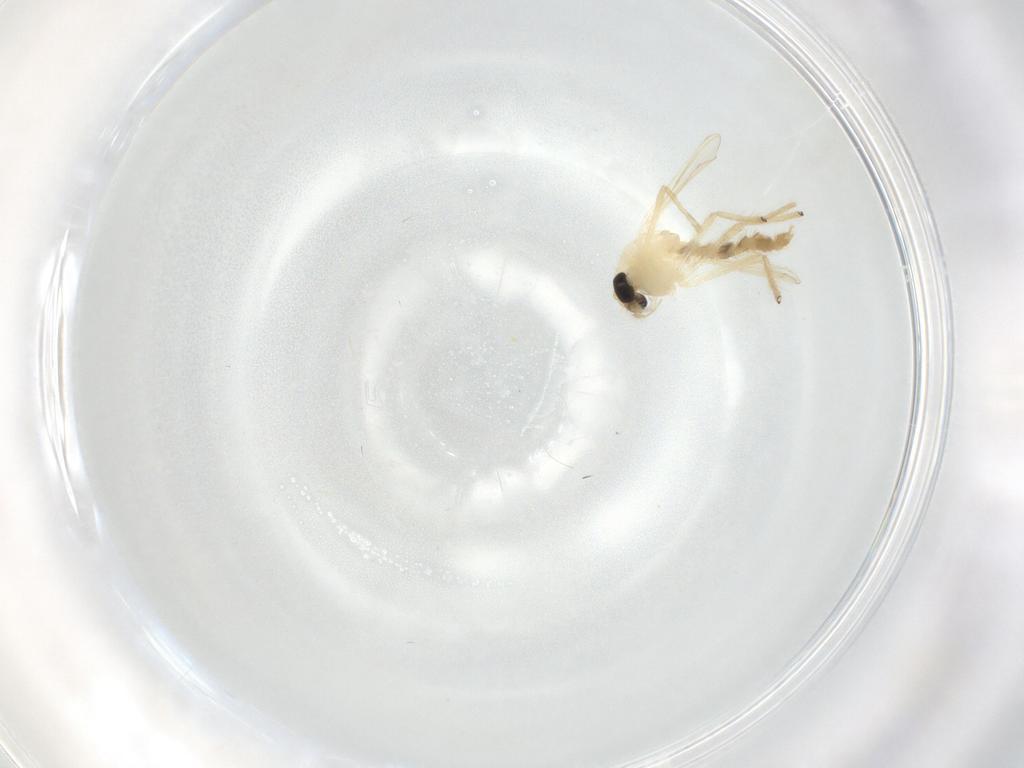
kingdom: Animalia
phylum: Arthropoda
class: Insecta
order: Diptera
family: Chironomidae
